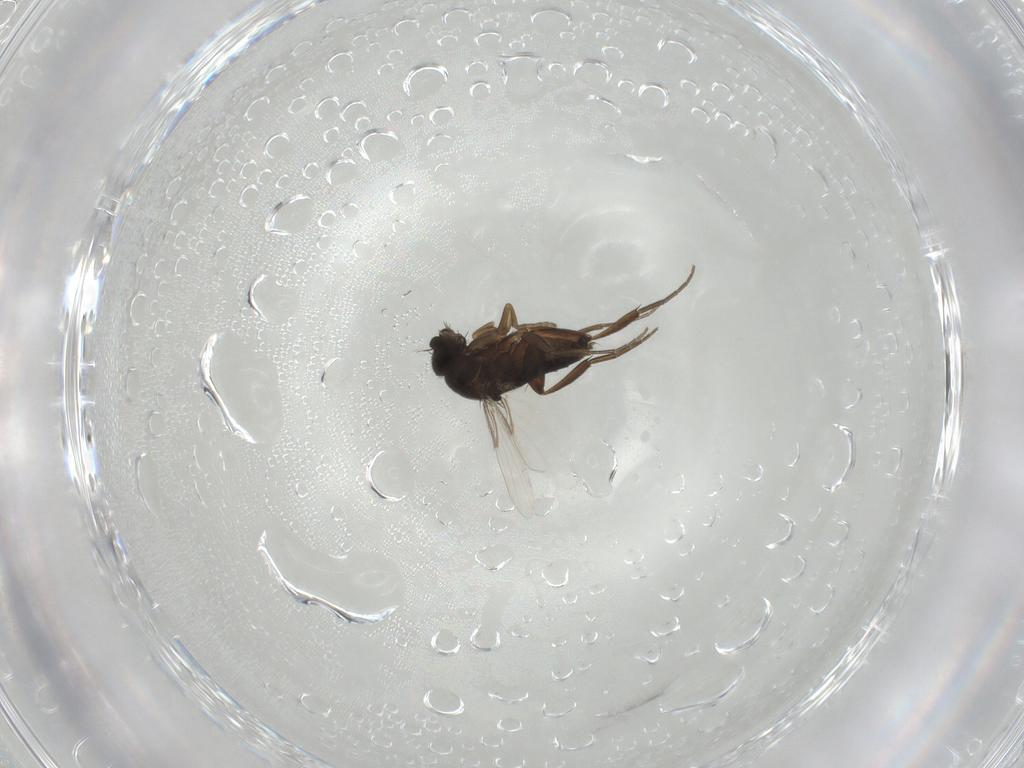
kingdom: Animalia
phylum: Arthropoda
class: Insecta
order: Diptera
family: Phoridae
